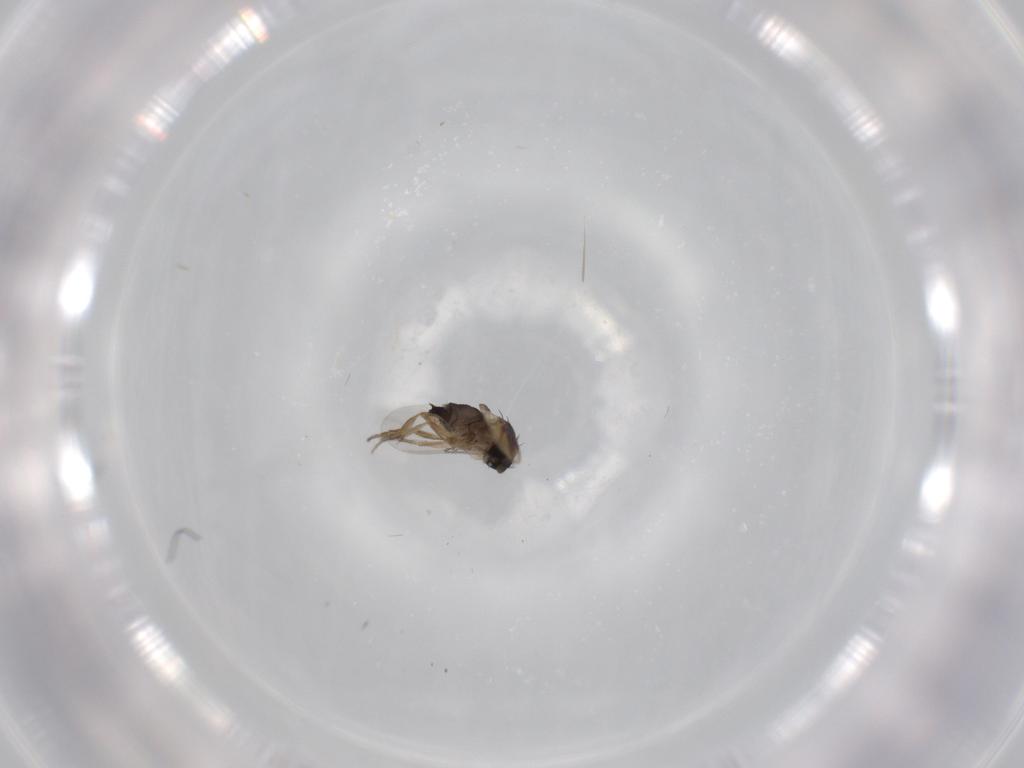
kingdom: Animalia
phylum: Arthropoda
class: Insecta
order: Diptera
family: Phoridae
